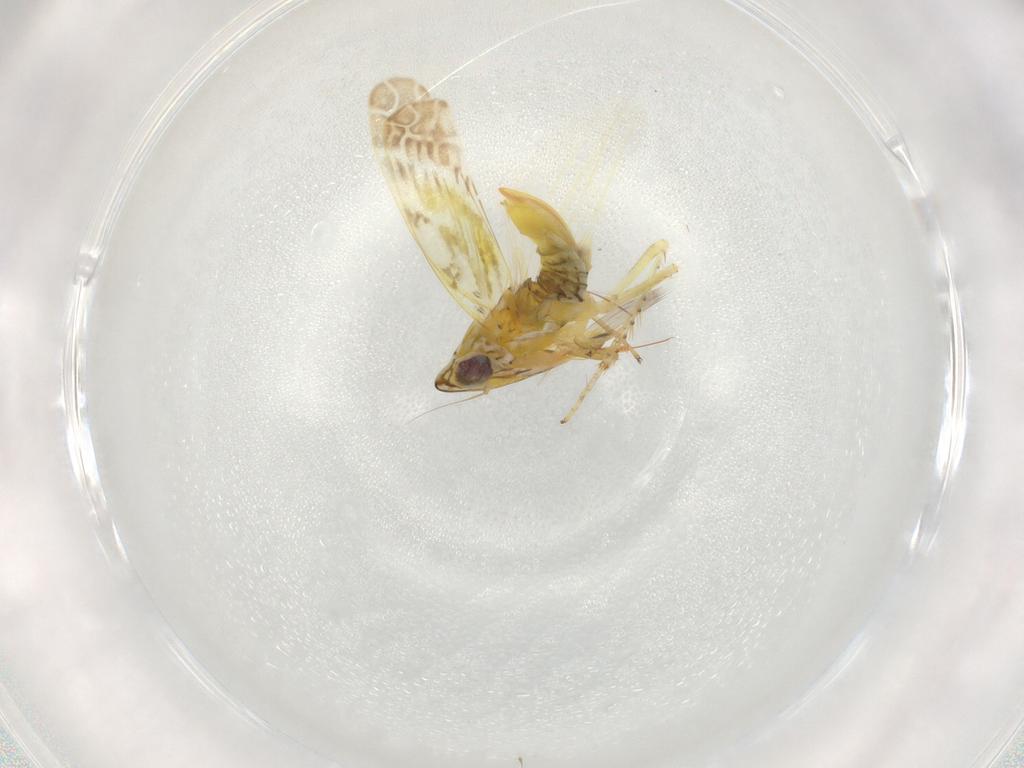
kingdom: Animalia
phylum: Arthropoda
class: Insecta
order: Hemiptera
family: Cicadellidae
